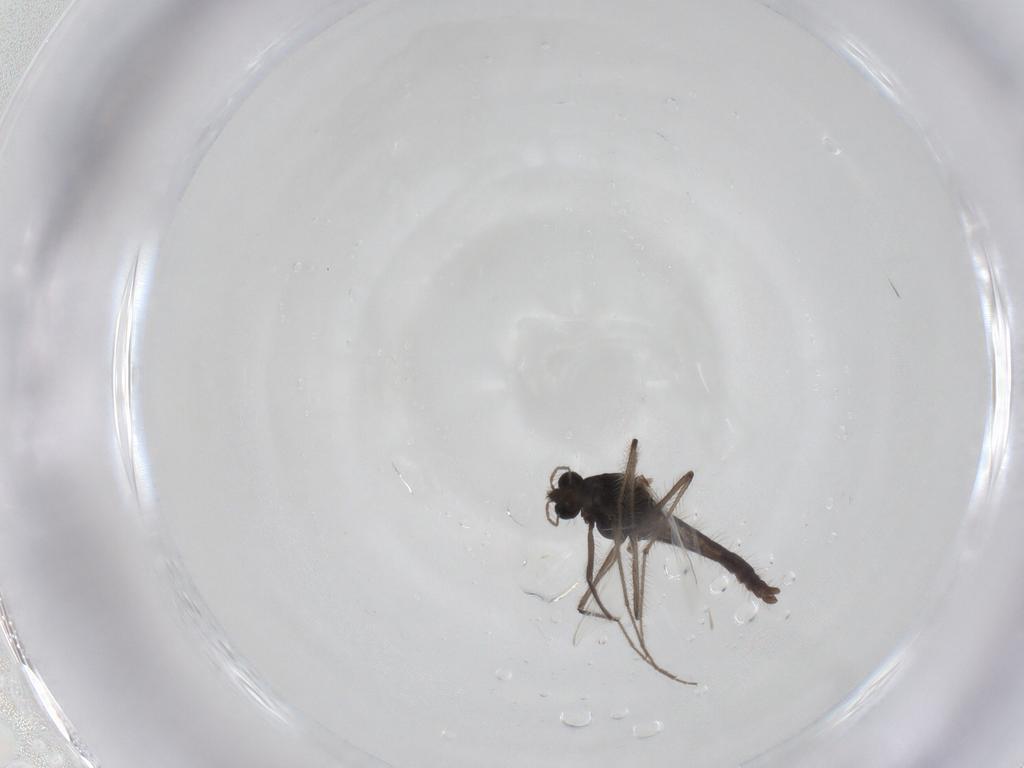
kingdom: Animalia
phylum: Arthropoda
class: Insecta
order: Diptera
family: Chironomidae
